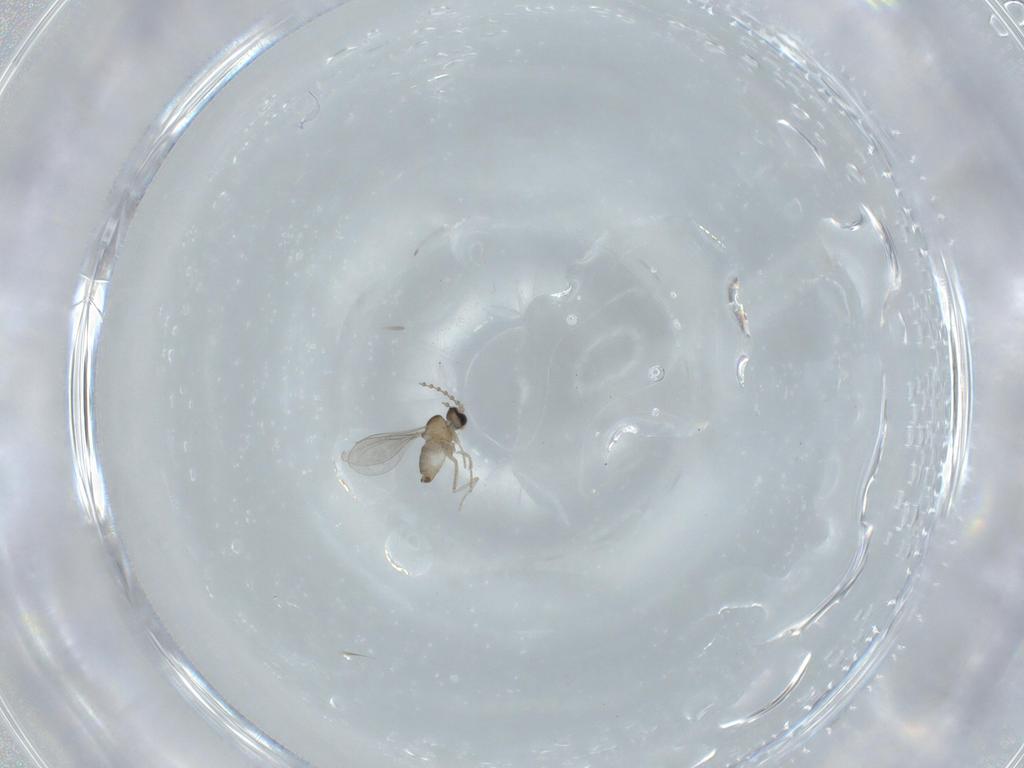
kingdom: Animalia
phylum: Arthropoda
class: Insecta
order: Diptera
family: Cecidomyiidae
